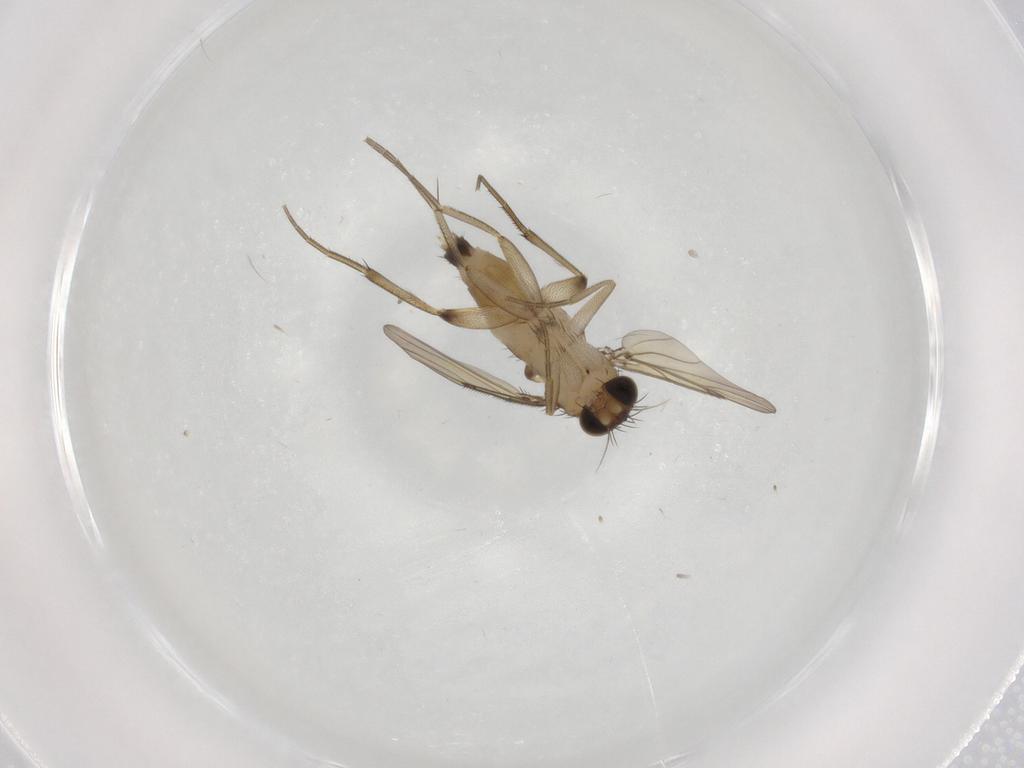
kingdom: Animalia
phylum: Arthropoda
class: Insecta
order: Diptera
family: Phoridae
